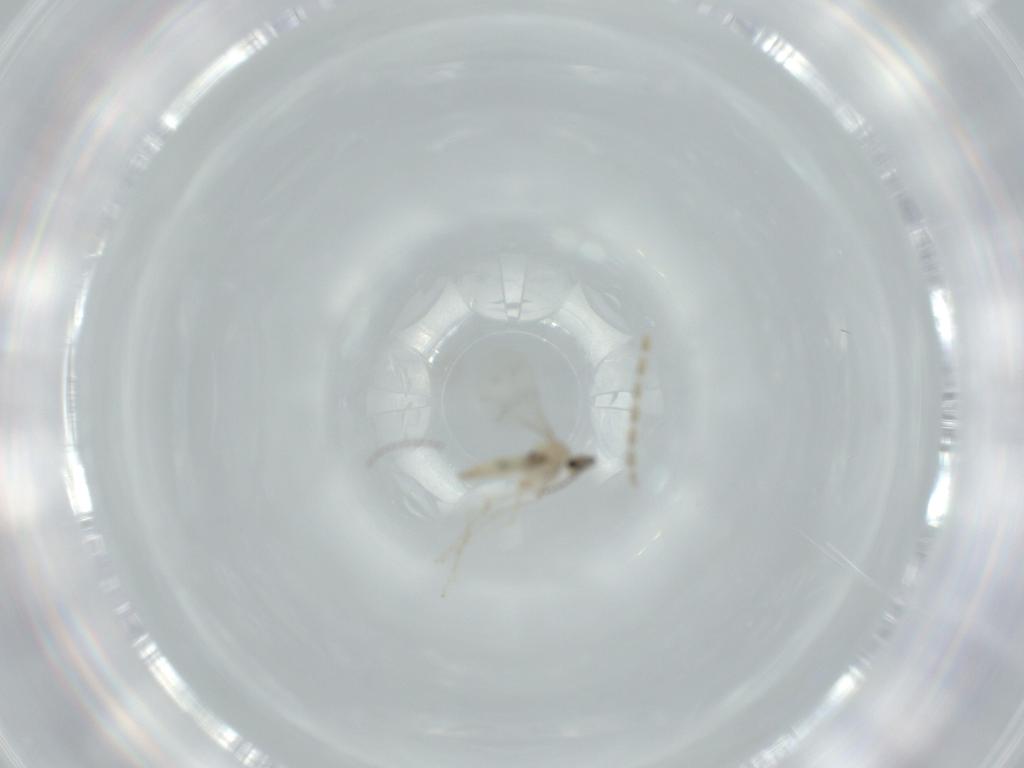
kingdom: Animalia
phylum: Arthropoda
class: Insecta
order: Diptera
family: Cecidomyiidae
